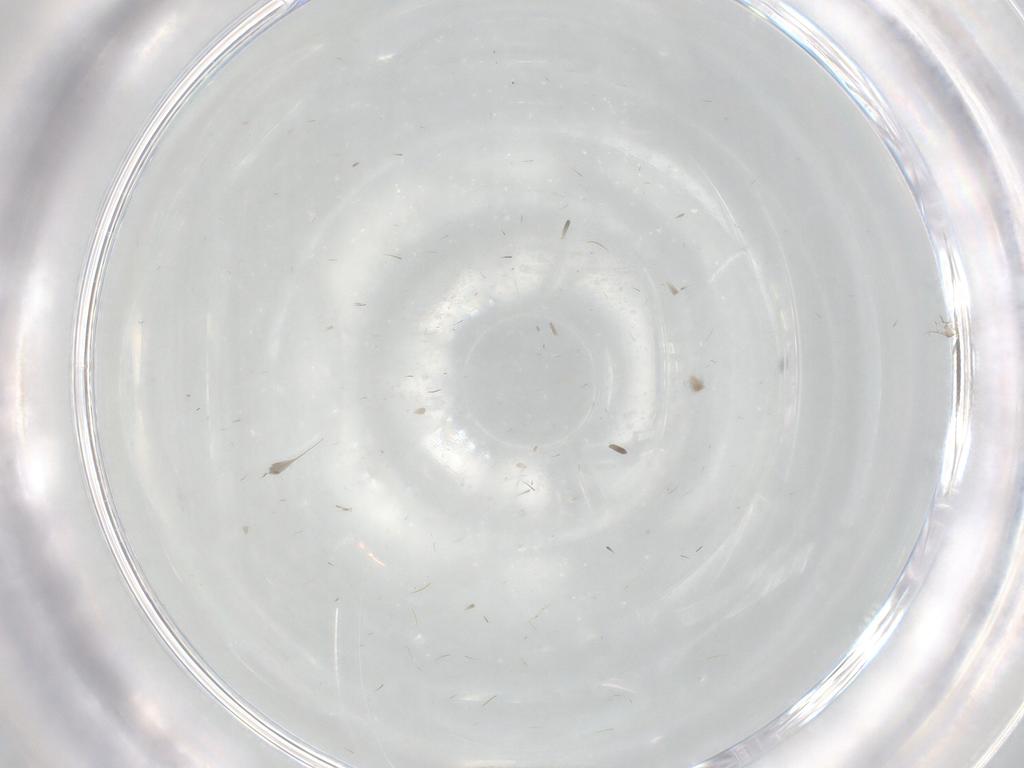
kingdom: Animalia
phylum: Arthropoda
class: Insecta
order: Diptera
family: Ceratopogonidae
